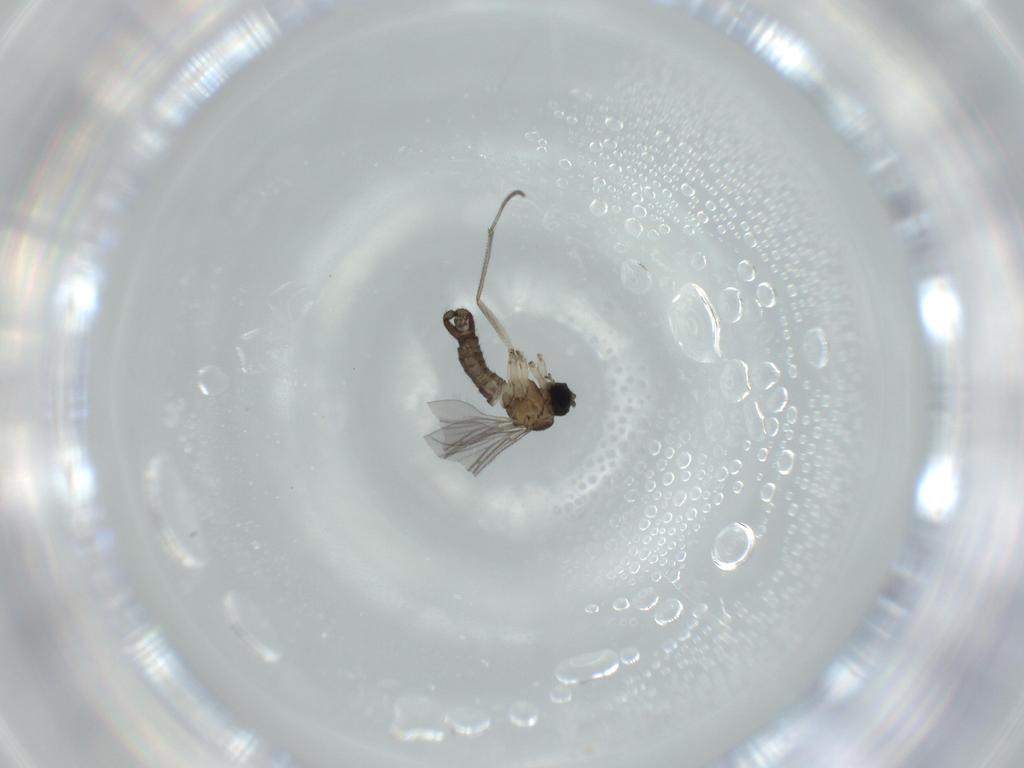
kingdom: Animalia
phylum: Arthropoda
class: Insecta
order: Diptera
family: Sciaridae
